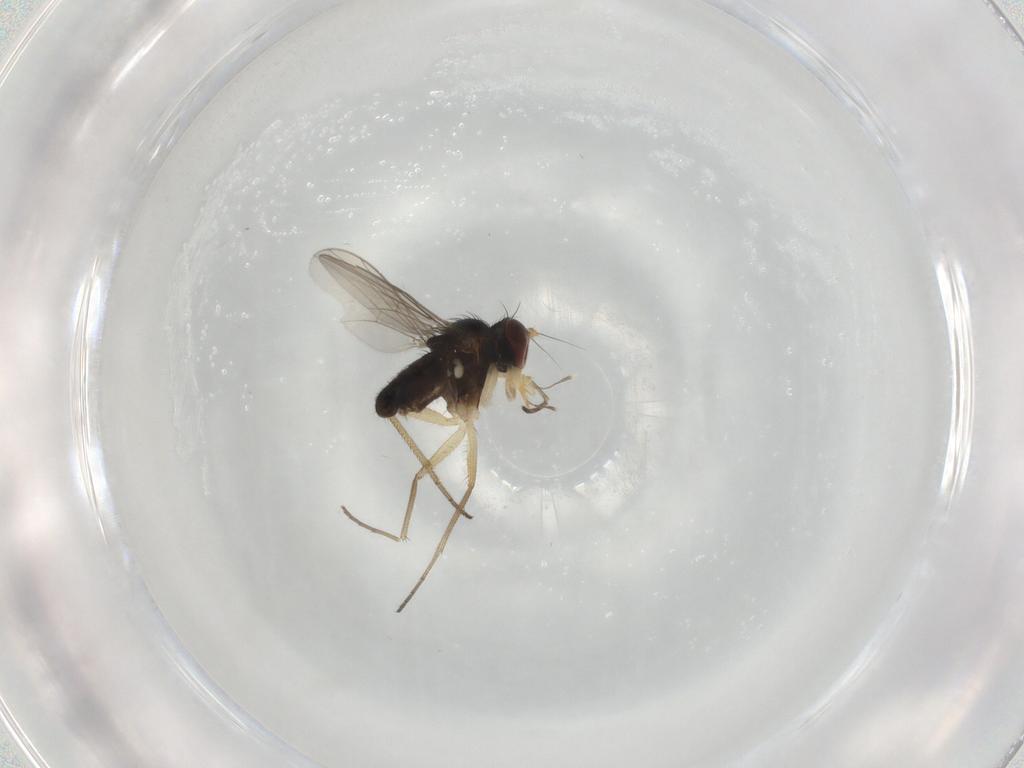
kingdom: Animalia
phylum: Arthropoda
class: Insecta
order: Diptera
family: Dolichopodidae
